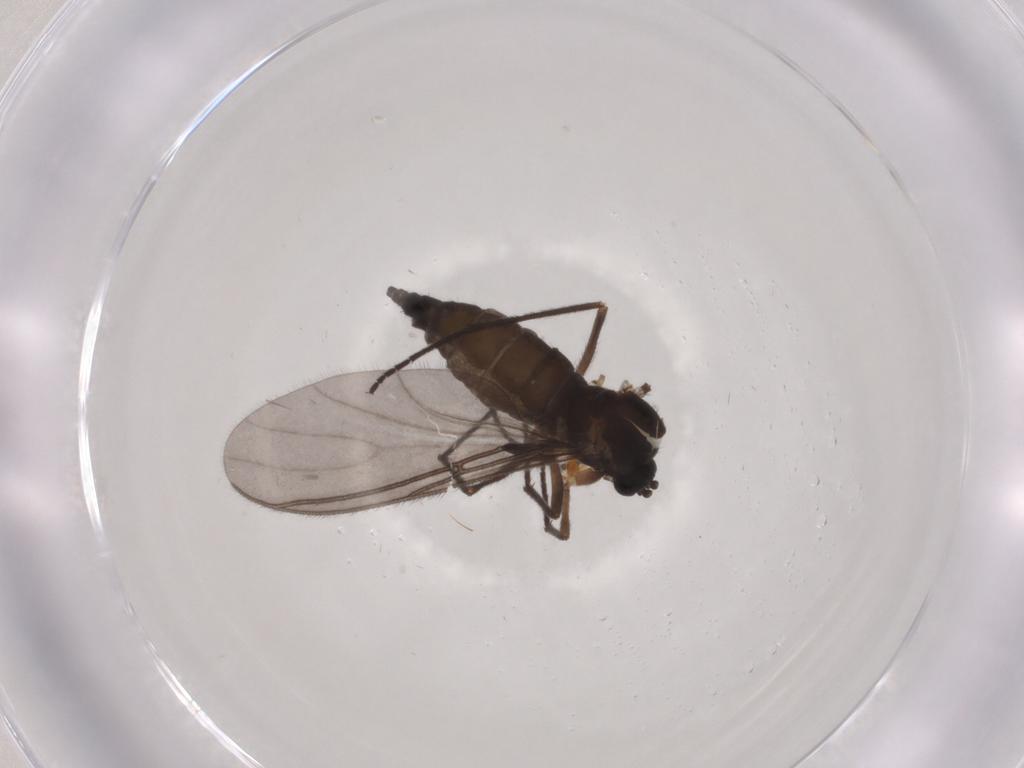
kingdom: Animalia
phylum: Arthropoda
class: Insecta
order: Diptera
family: Sciaridae
